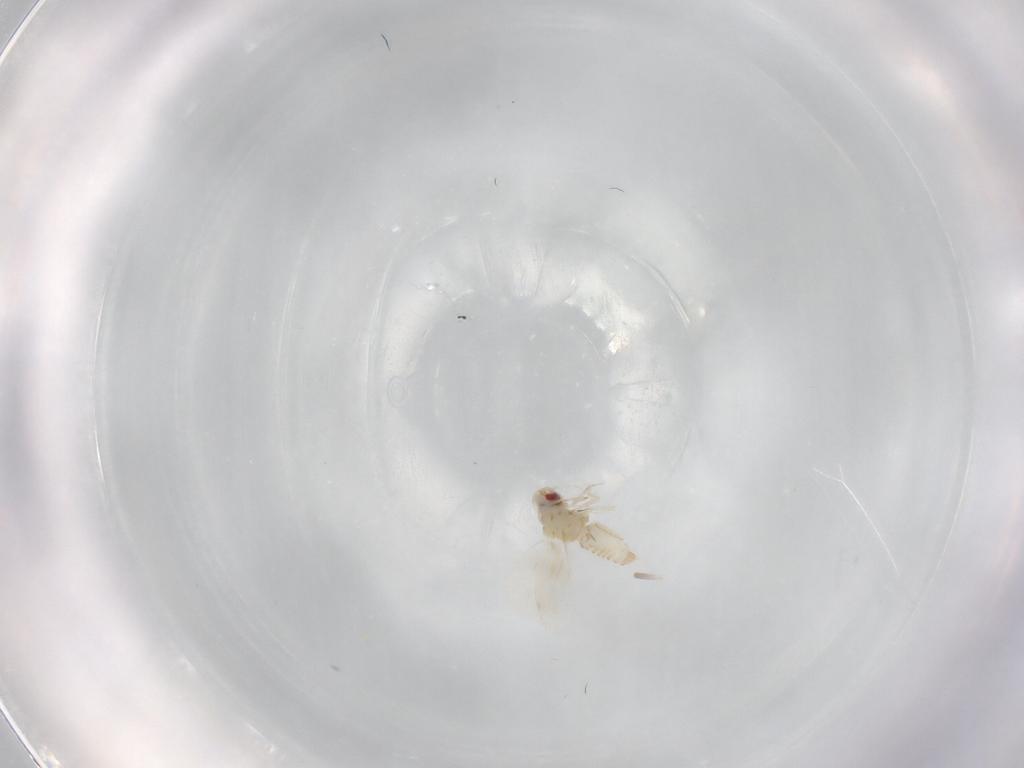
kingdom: Animalia
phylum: Arthropoda
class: Insecta
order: Hemiptera
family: Aleyrodidae
